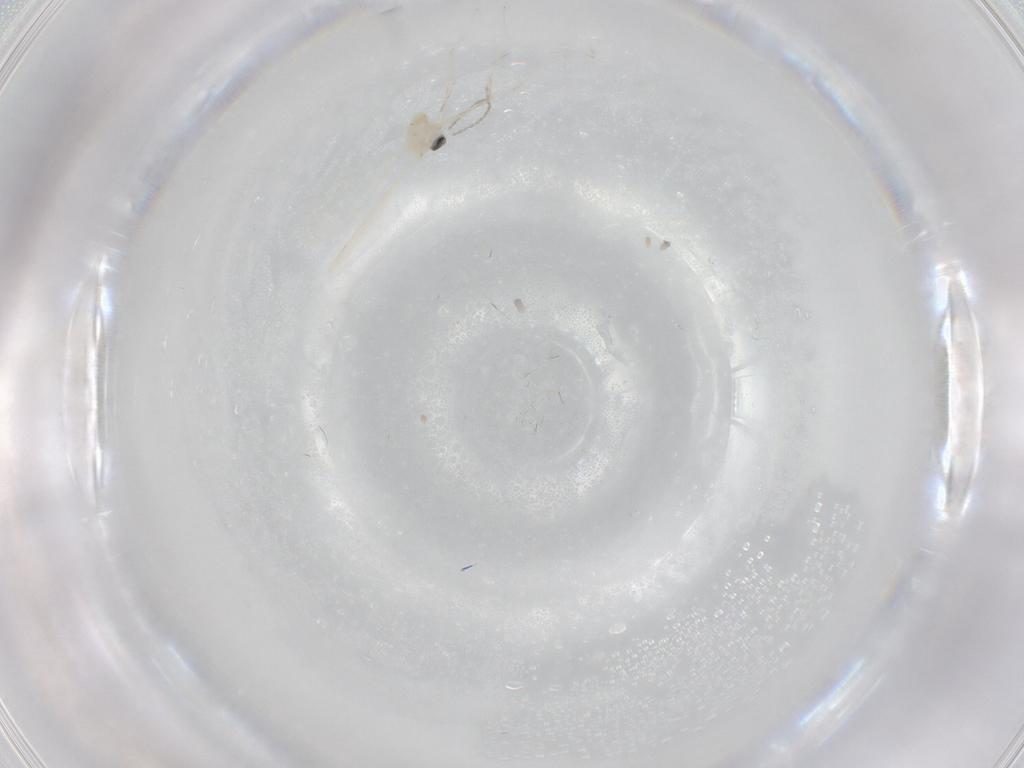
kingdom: Animalia
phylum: Arthropoda
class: Insecta
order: Diptera
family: Cecidomyiidae
